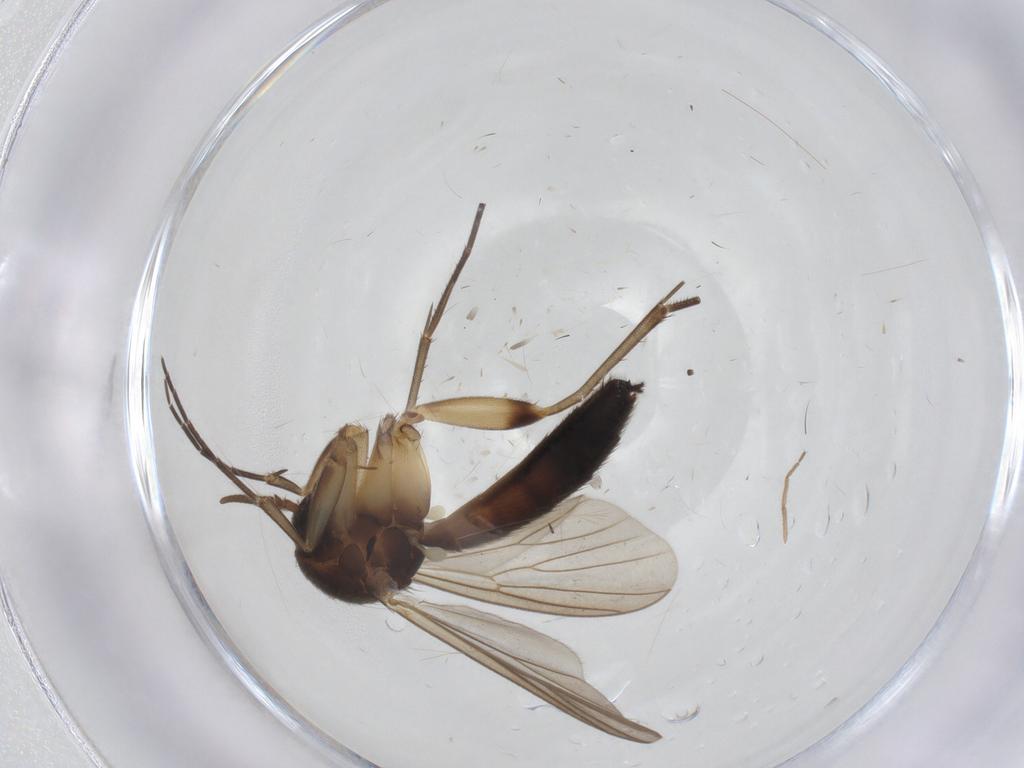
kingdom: Animalia
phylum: Arthropoda
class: Insecta
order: Diptera
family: Mycetophilidae
